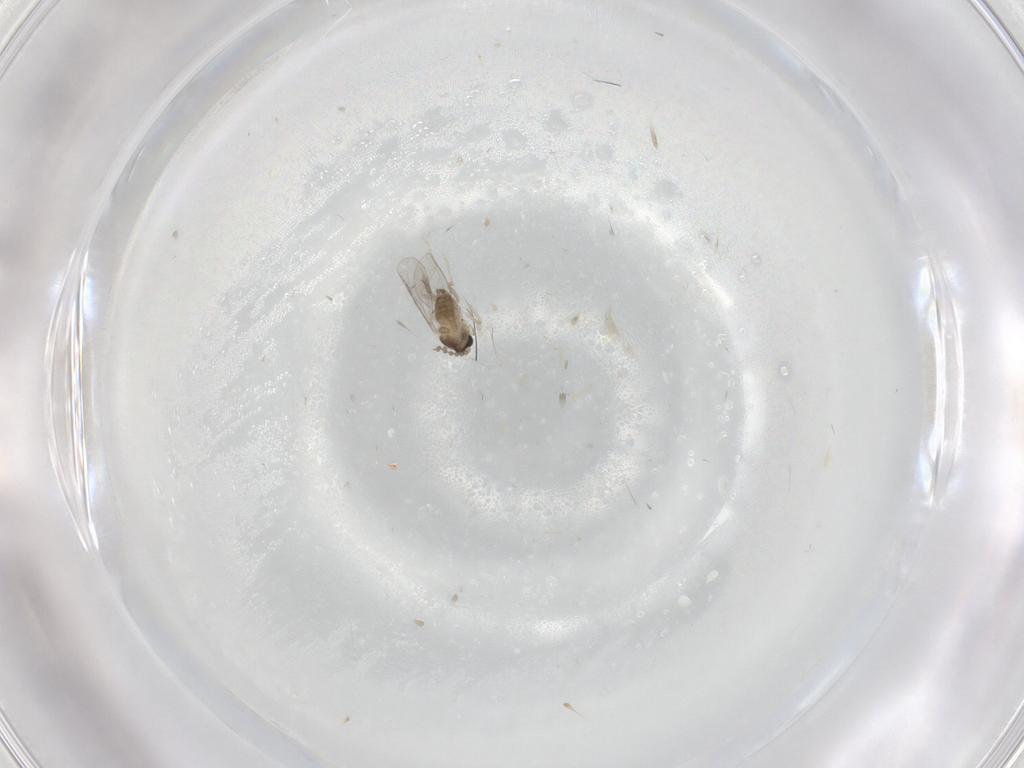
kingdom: Animalia
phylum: Arthropoda
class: Insecta
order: Diptera
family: Cecidomyiidae
